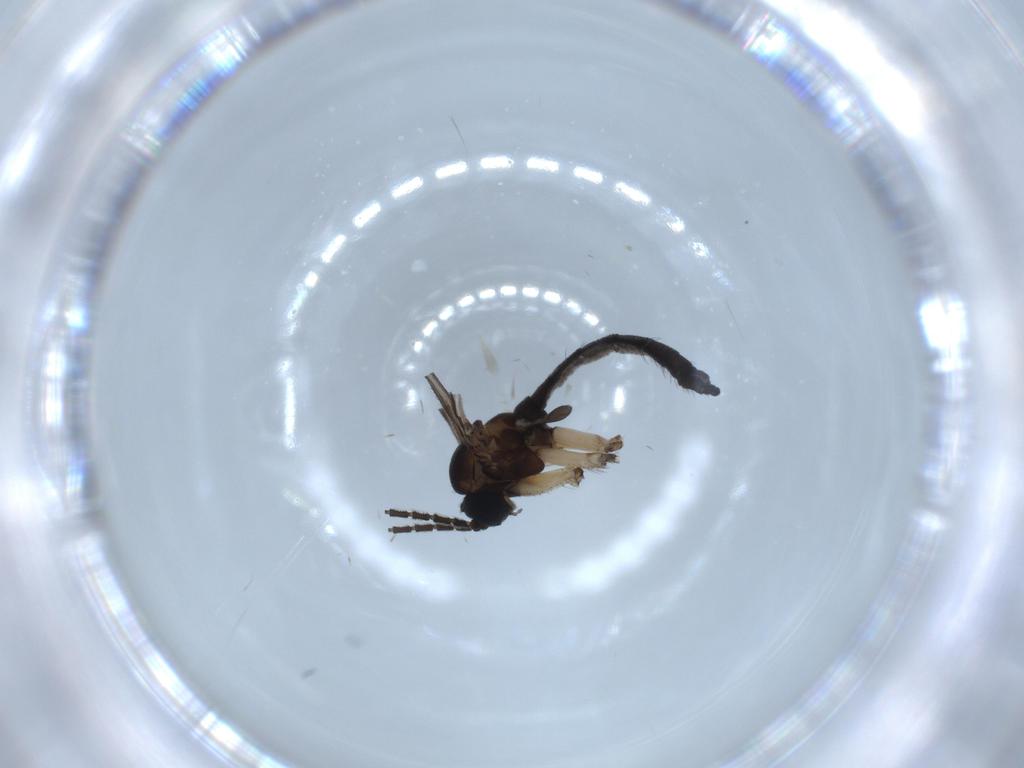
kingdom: Animalia
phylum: Arthropoda
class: Insecta
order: Diptera
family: Sciaridae
